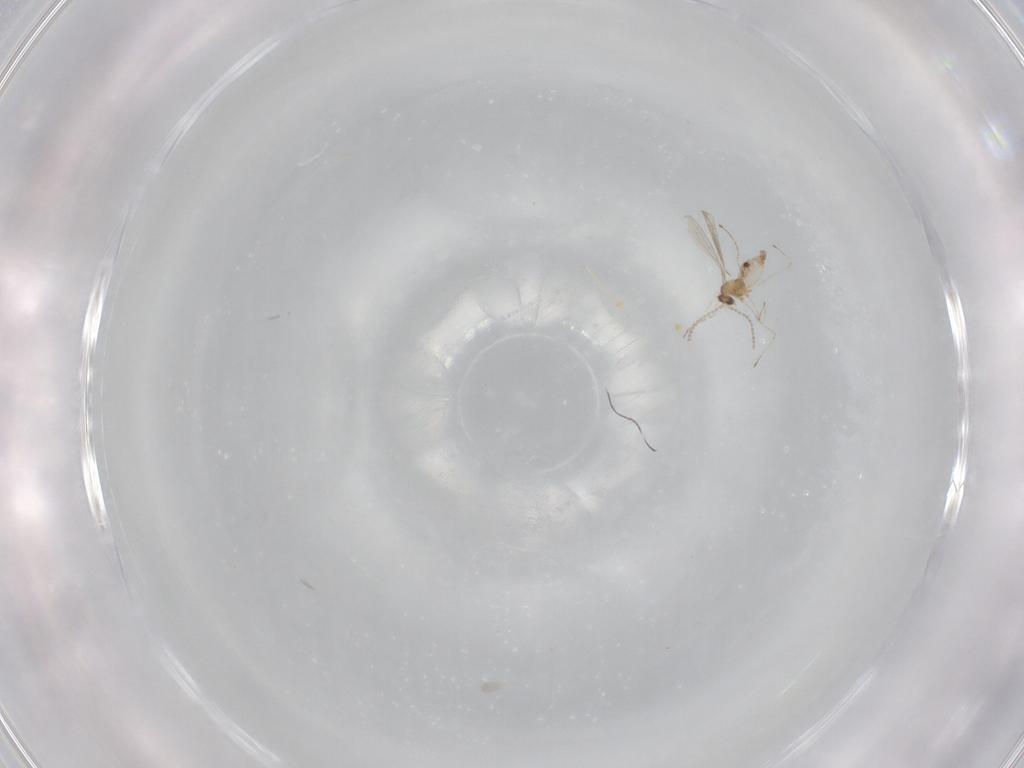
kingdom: Animalia
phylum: Arthropoda
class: Insecta
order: Diptera
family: Cecidomyiidae
